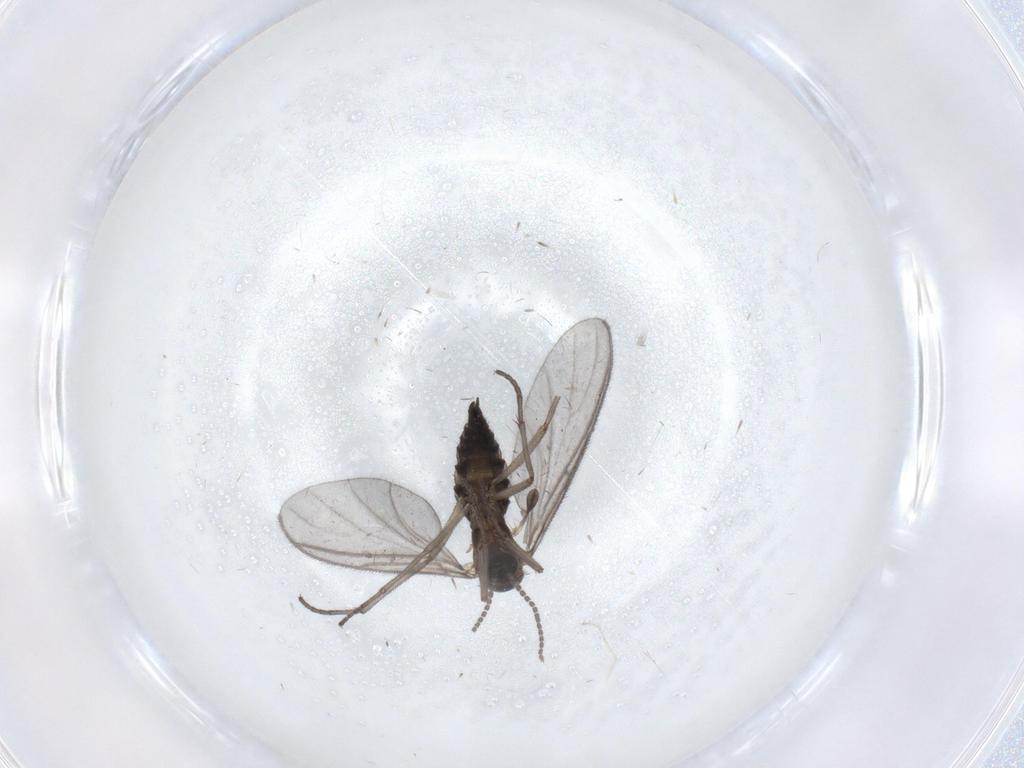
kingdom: Animalia
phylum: Arthropoda
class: Insecta
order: Diptera
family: Sciaridae
